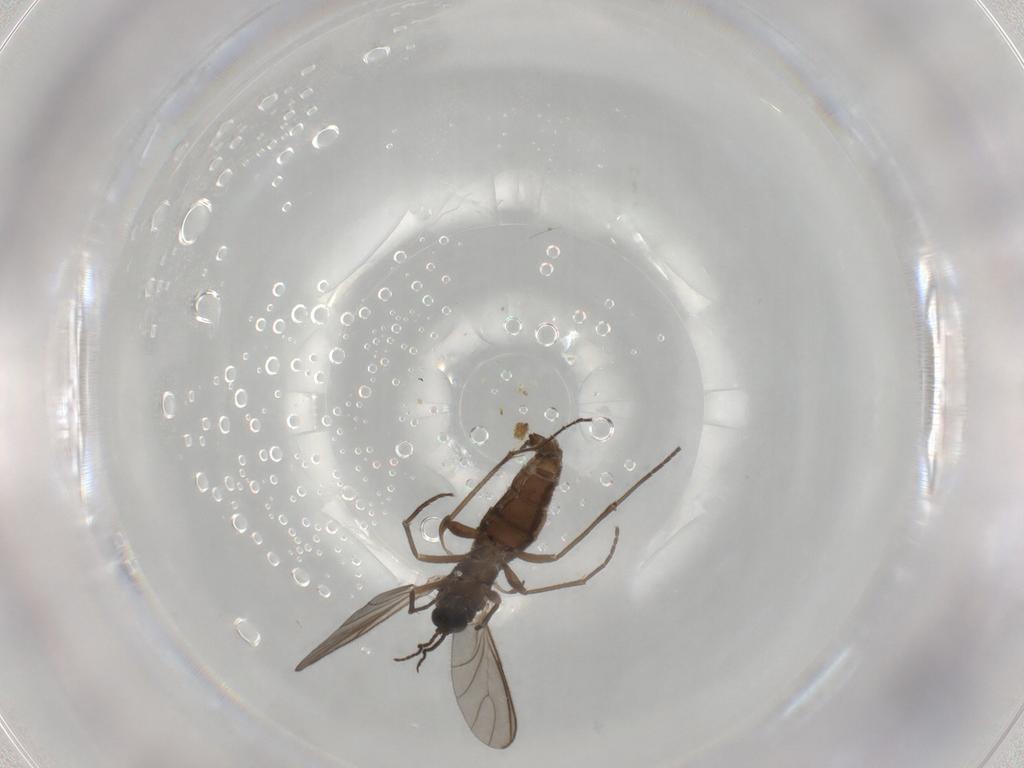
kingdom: Animalia
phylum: Arthropoda
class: Insecta
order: Diptera
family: Sciaridae
